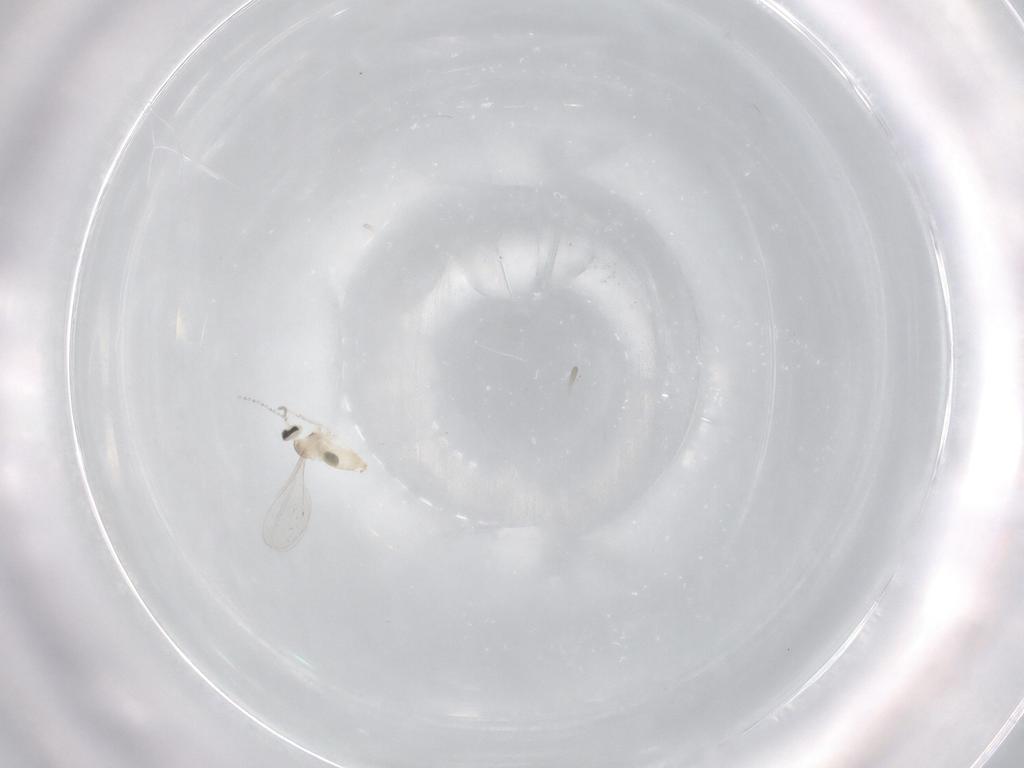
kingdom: Animalia
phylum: Arthropoda
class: Insecta
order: Diptera
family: Cecidomyiidae
